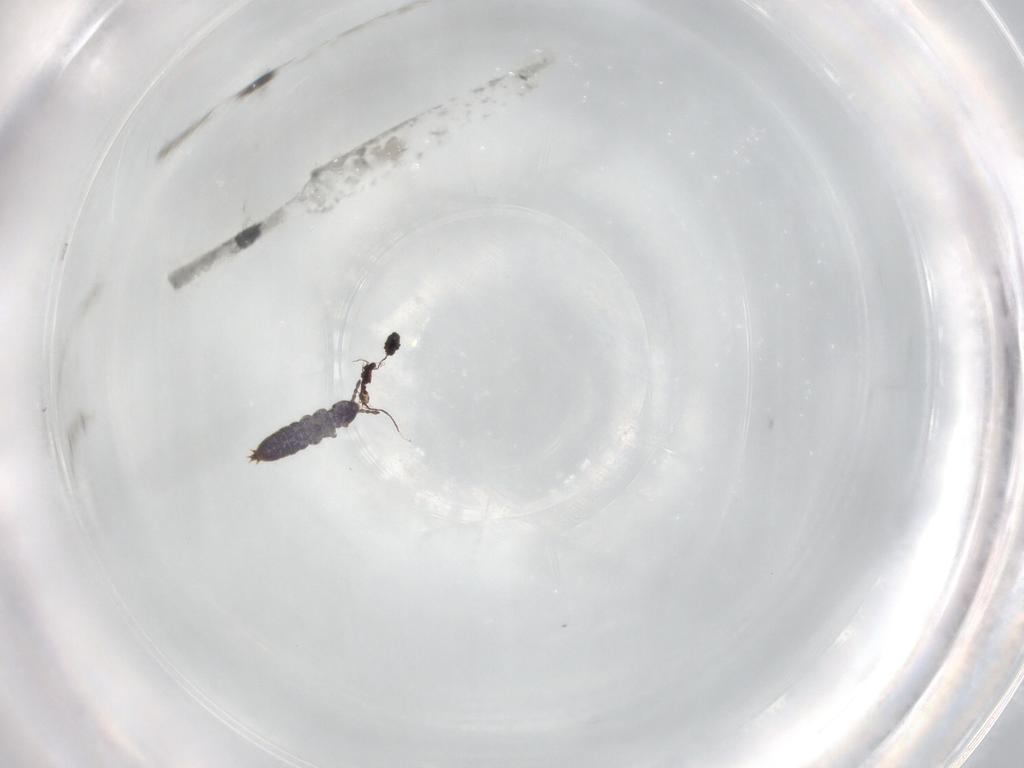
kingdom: Animalia
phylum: Arthropoda
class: Collembola
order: Entomobryomorpha
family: Isotomidae
